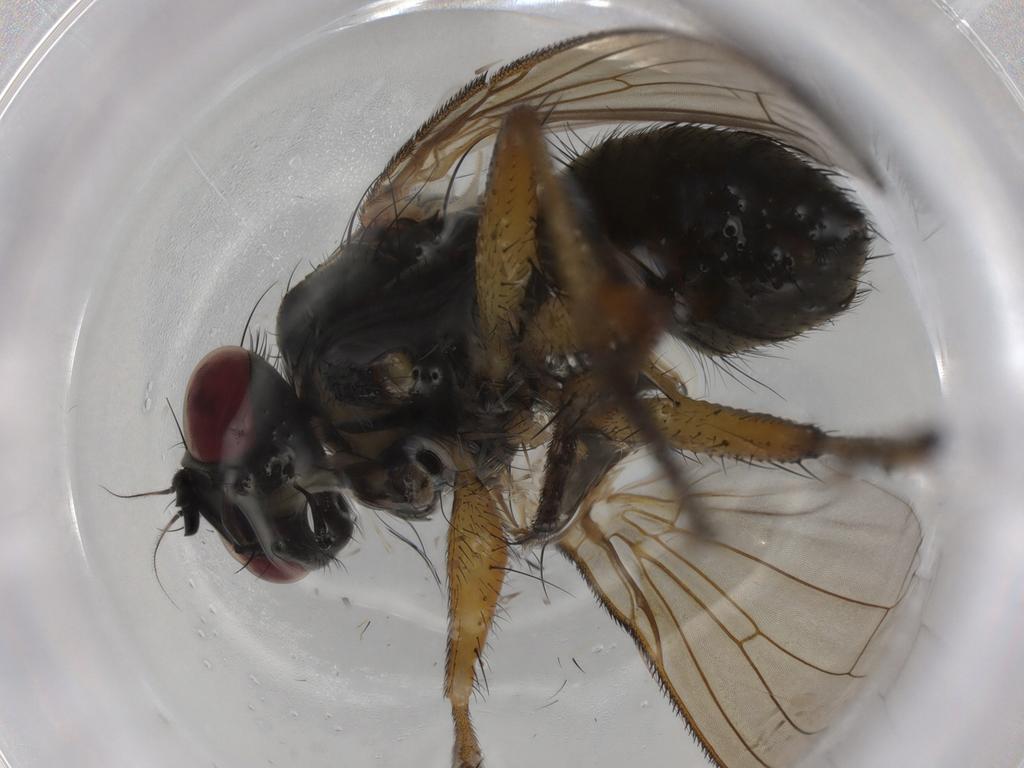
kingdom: Animalia
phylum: Arthropoda
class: Insecta
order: Diptera
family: Muscidae
